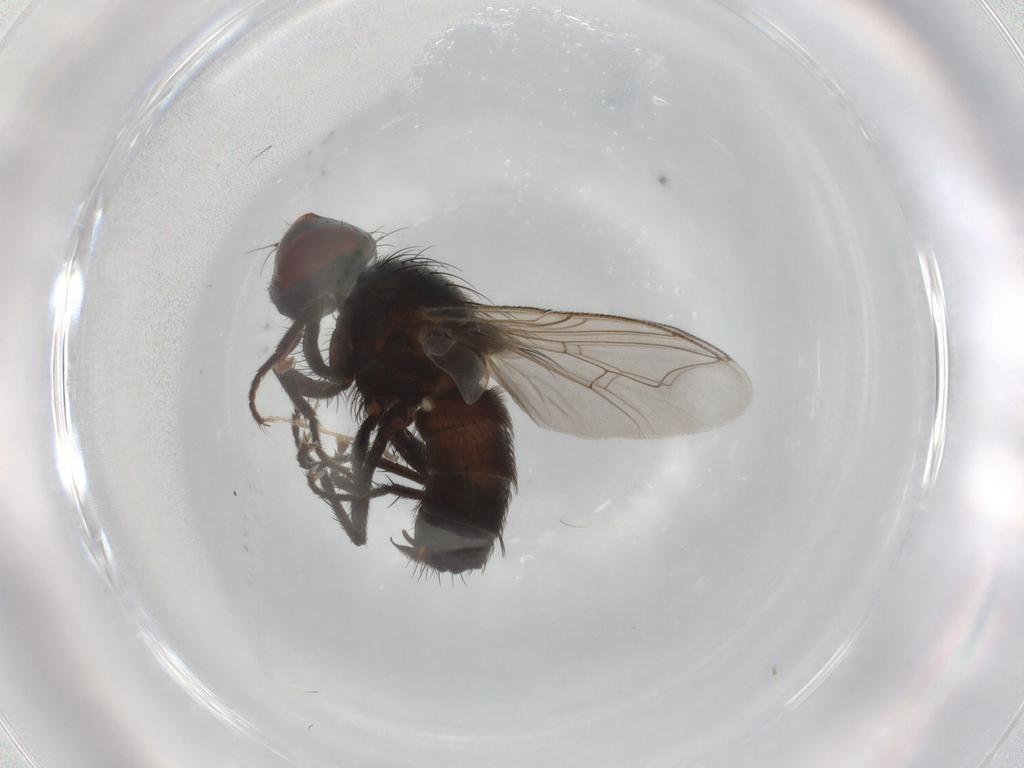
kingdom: Animalia
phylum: Arthropoda
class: Insecta
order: Diptera
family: Sarcophagidae
